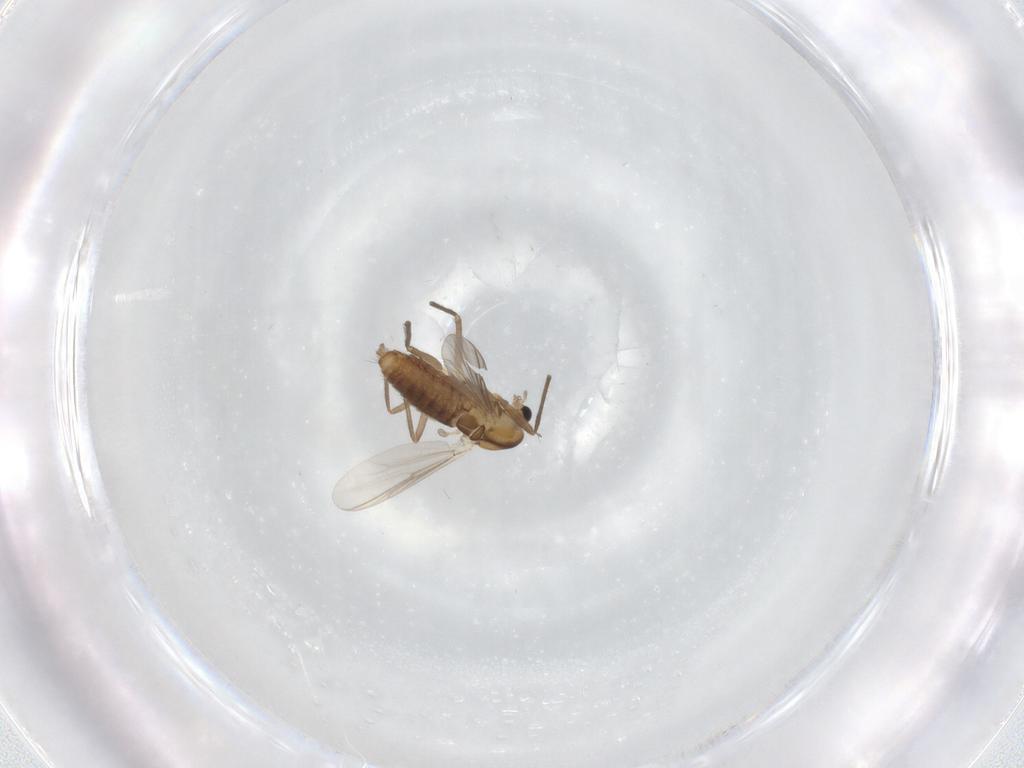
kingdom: Animalia
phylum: Arthropoda
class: Insecta
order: Diptera
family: Chironomidae
